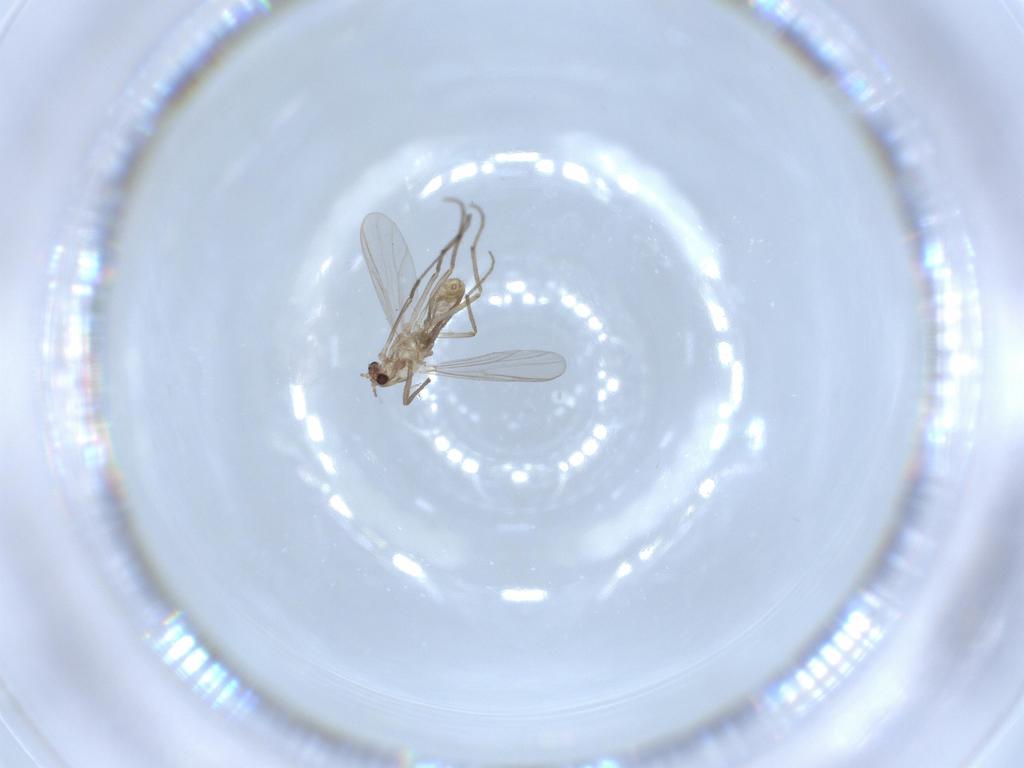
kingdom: Animalia
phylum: Arthropoda
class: Insecta
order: Diptera
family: Chironomidae
